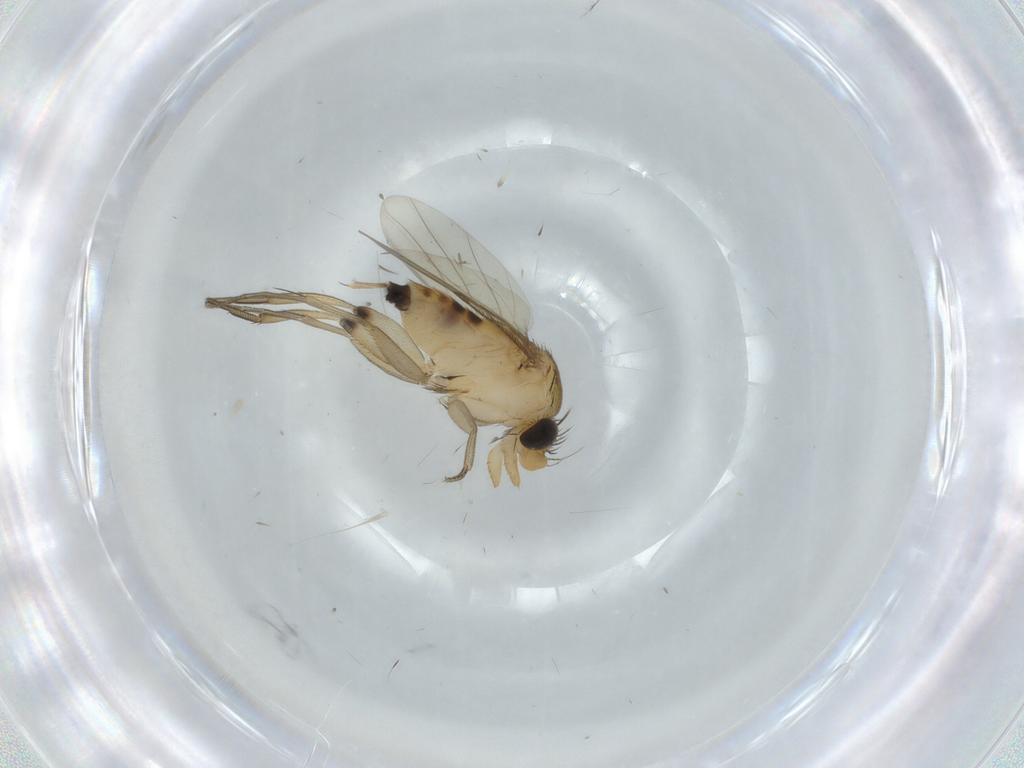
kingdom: Animalia
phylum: Arthropoda
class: Insecta
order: Diptera
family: Phoridae
